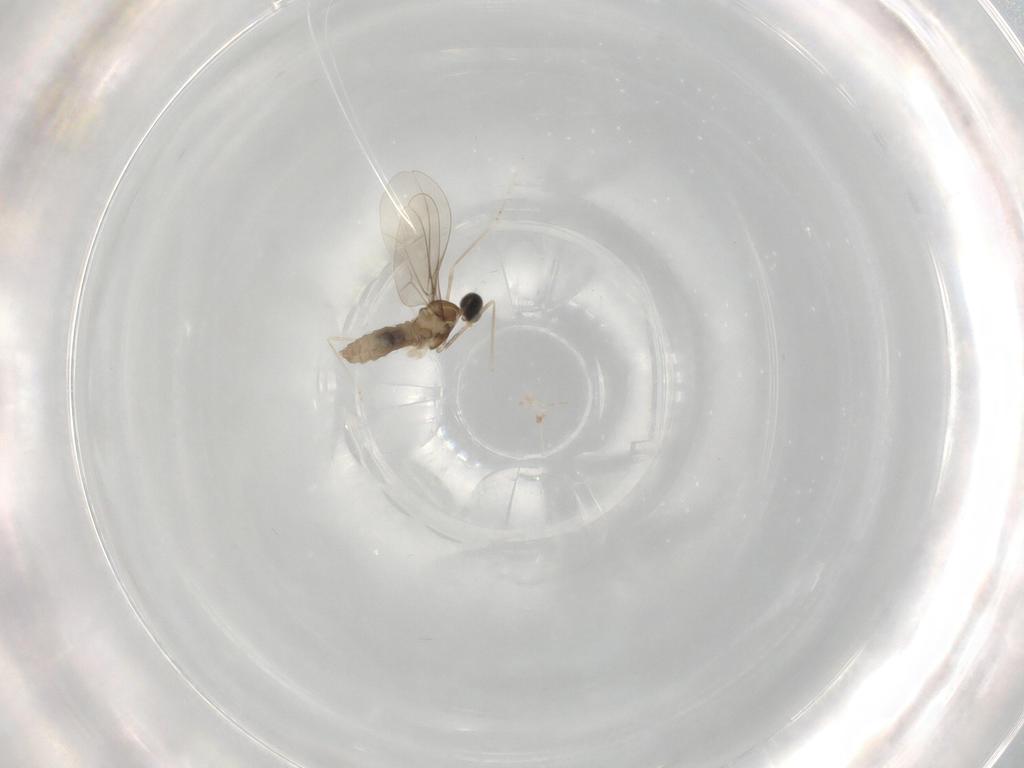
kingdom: Animalia
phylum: Arthropoda
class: Insecta
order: Diptera
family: Cecidomyiidae
